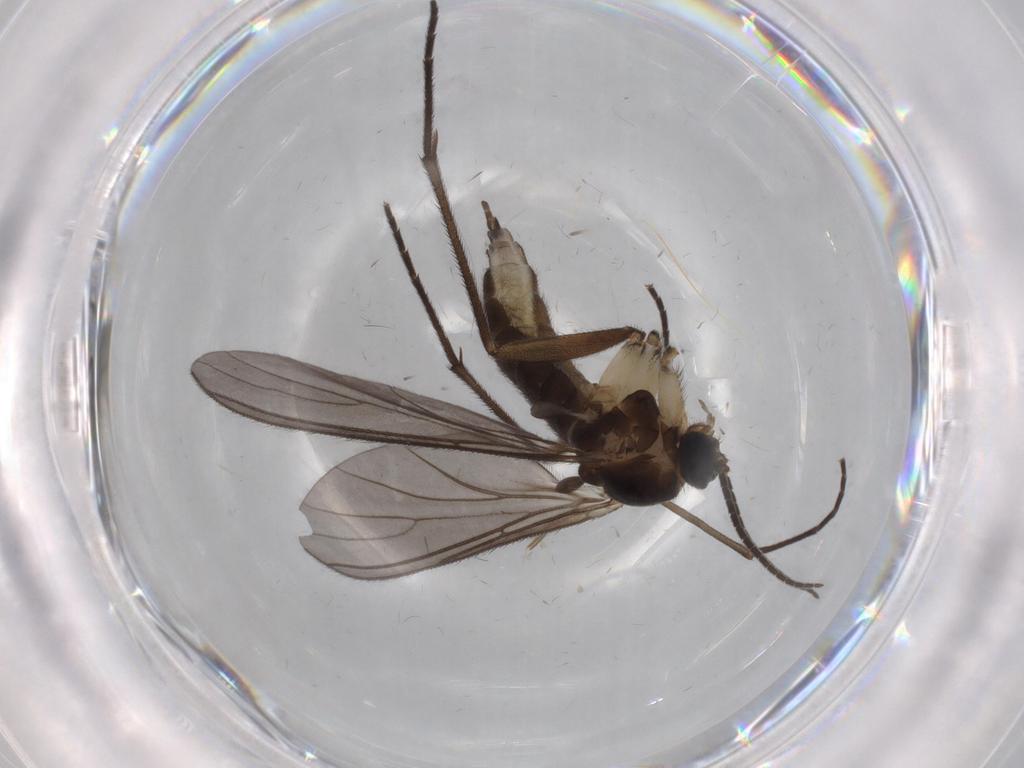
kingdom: Animalia
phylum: Arthropoda
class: Insecta
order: Diptera
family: Sciaridae
